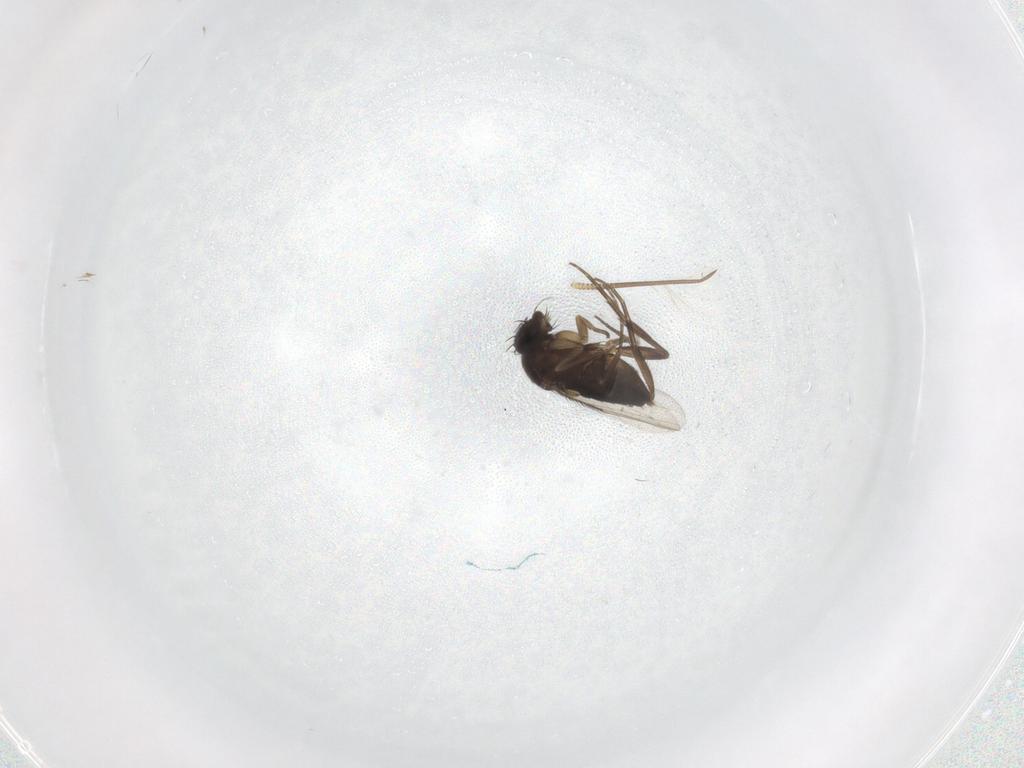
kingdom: Animalia
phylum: Arthropoda
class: Insecta
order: Diptera
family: Phoridae
